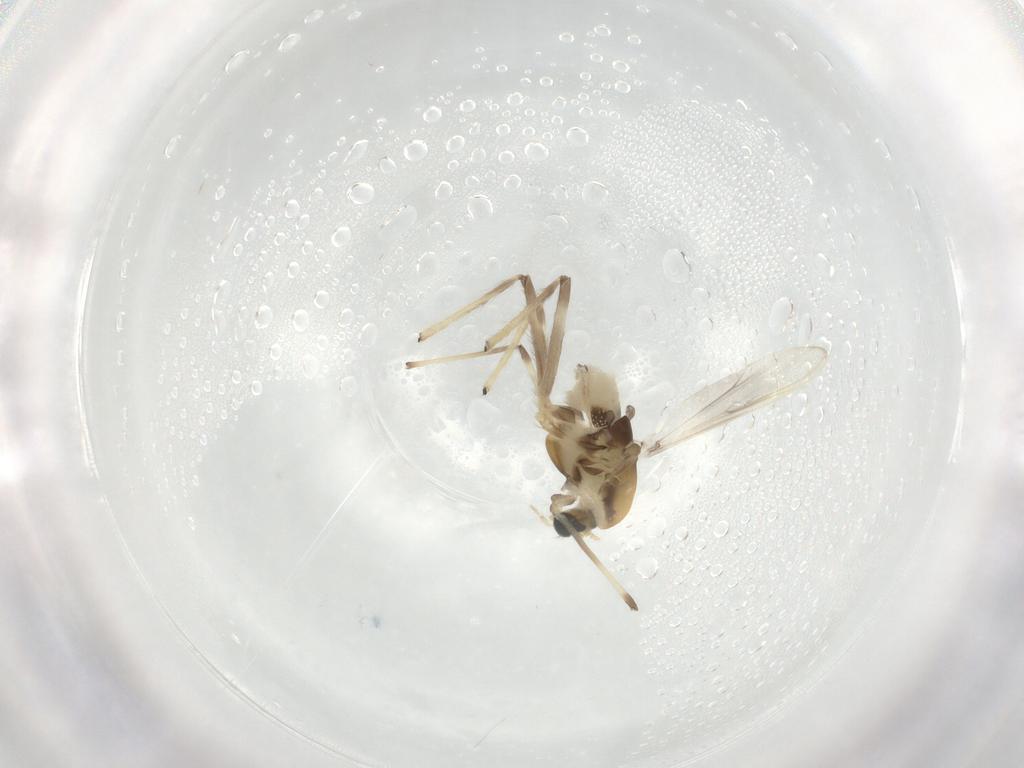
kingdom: Animalia
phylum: Arthropoda
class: Insecta
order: Diptera
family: Chironomidae
